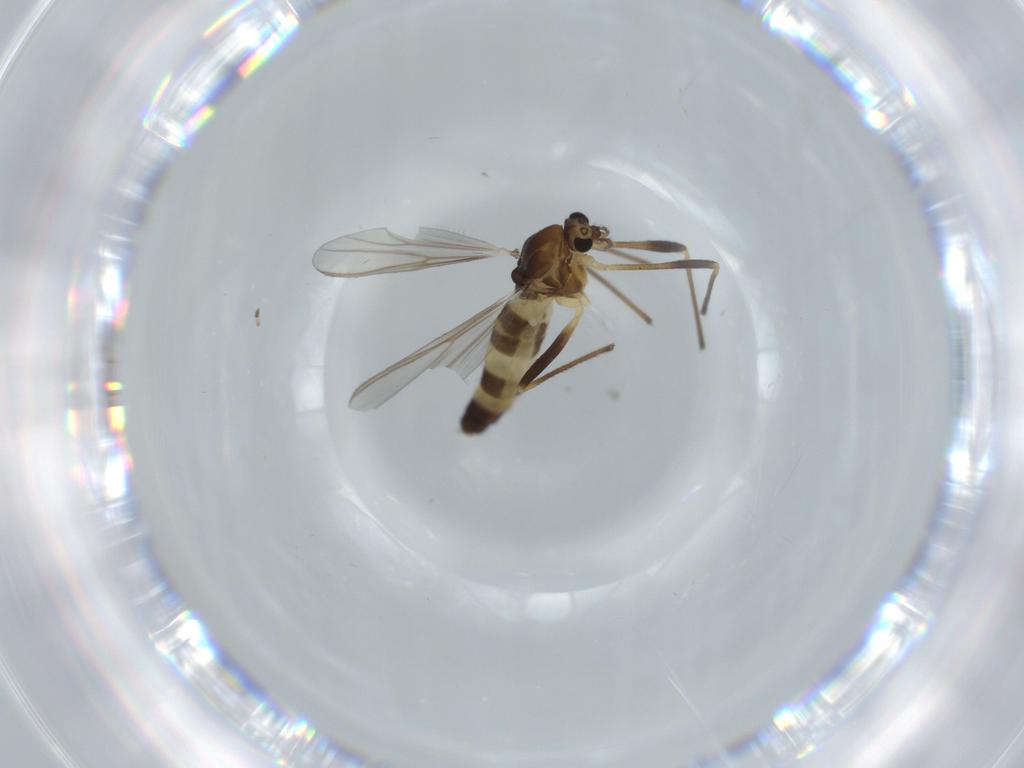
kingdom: Animalia
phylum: Arthropoda
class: Insecta
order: Diptera
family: Chironomidae
